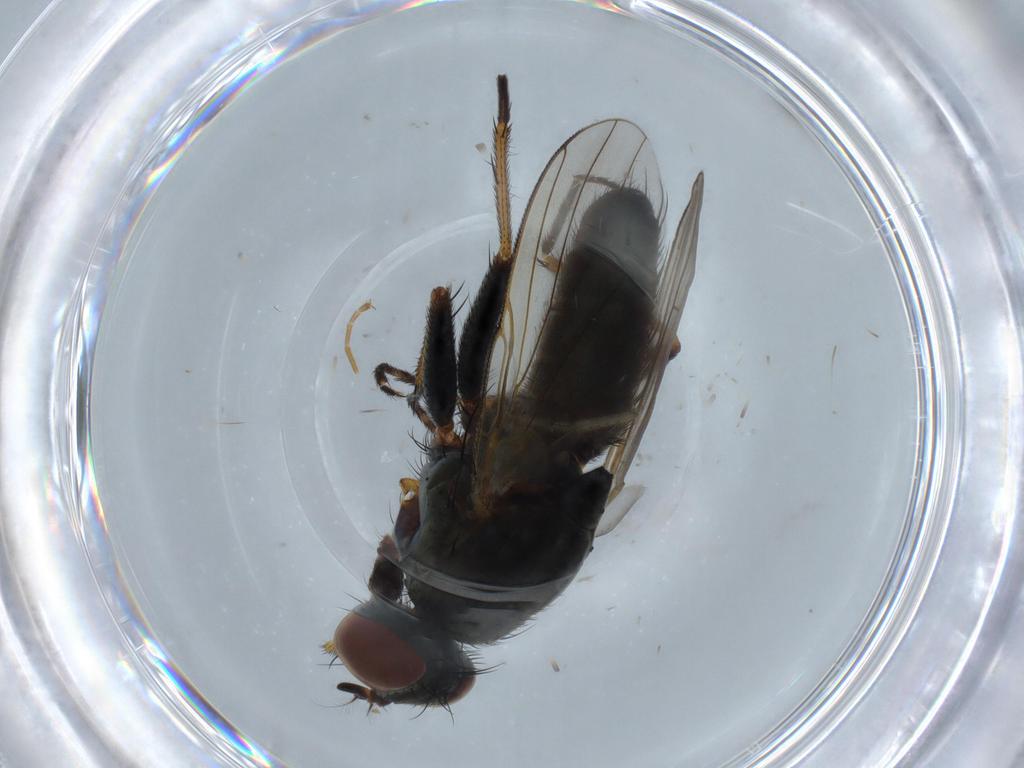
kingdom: Animalia
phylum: Arthropoda
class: Insecta
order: Diptera
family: Muscidae
